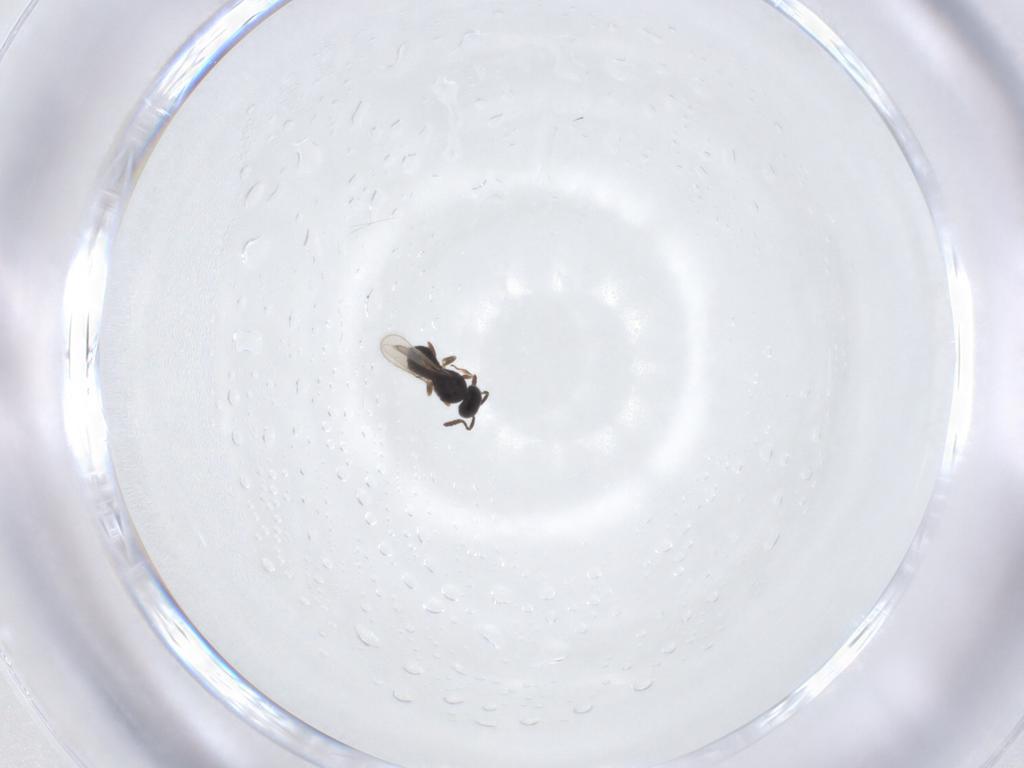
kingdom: Animalia
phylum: Arthropoda
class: Insecta
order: Hymenoptera
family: Scelionidae
